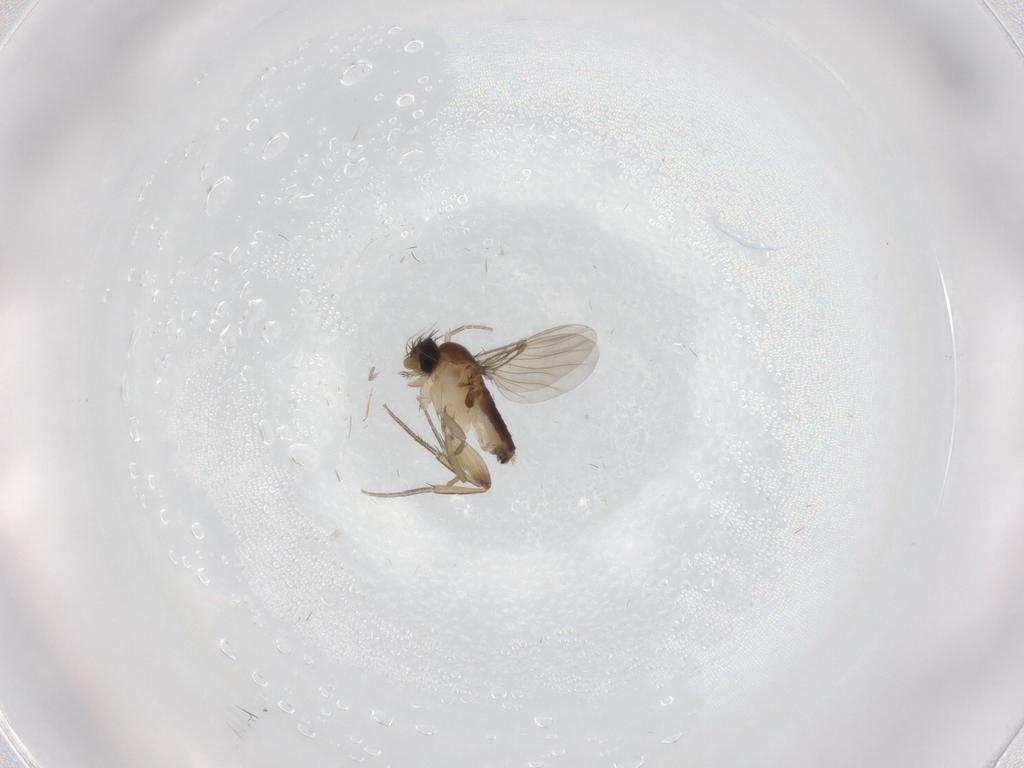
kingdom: Animalia
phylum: Arthropoda
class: Insecta
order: Diptera
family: Phoridae
